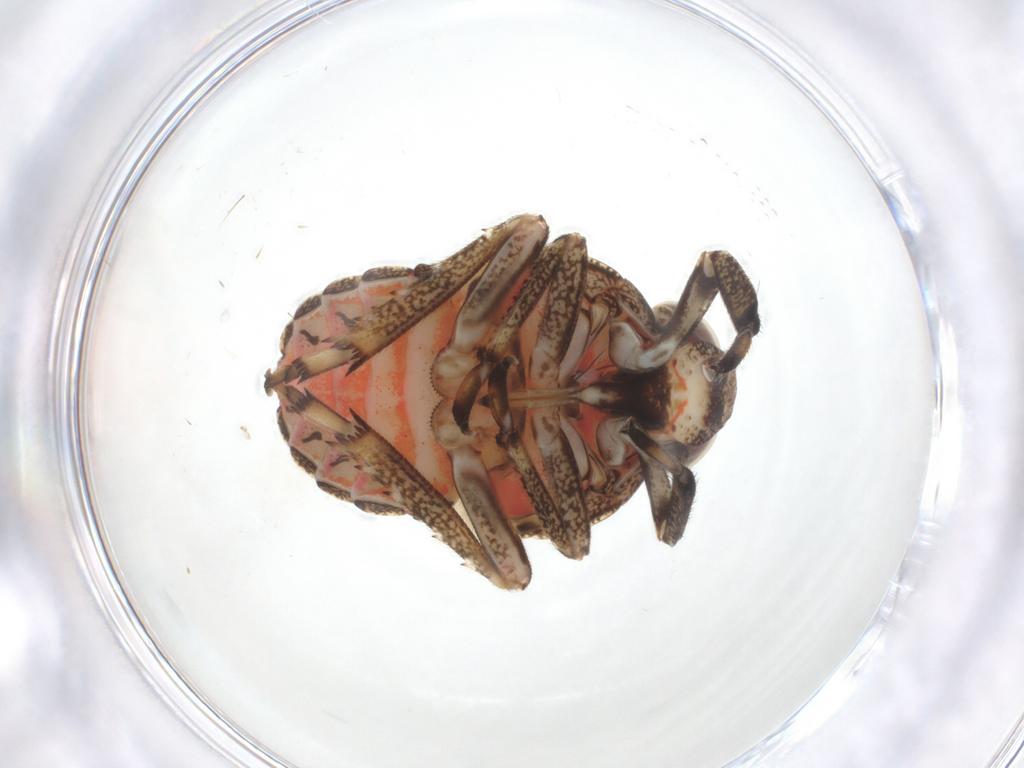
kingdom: Animalia
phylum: Arthropoda
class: Insecta
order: Hemiptera
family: Issidae
